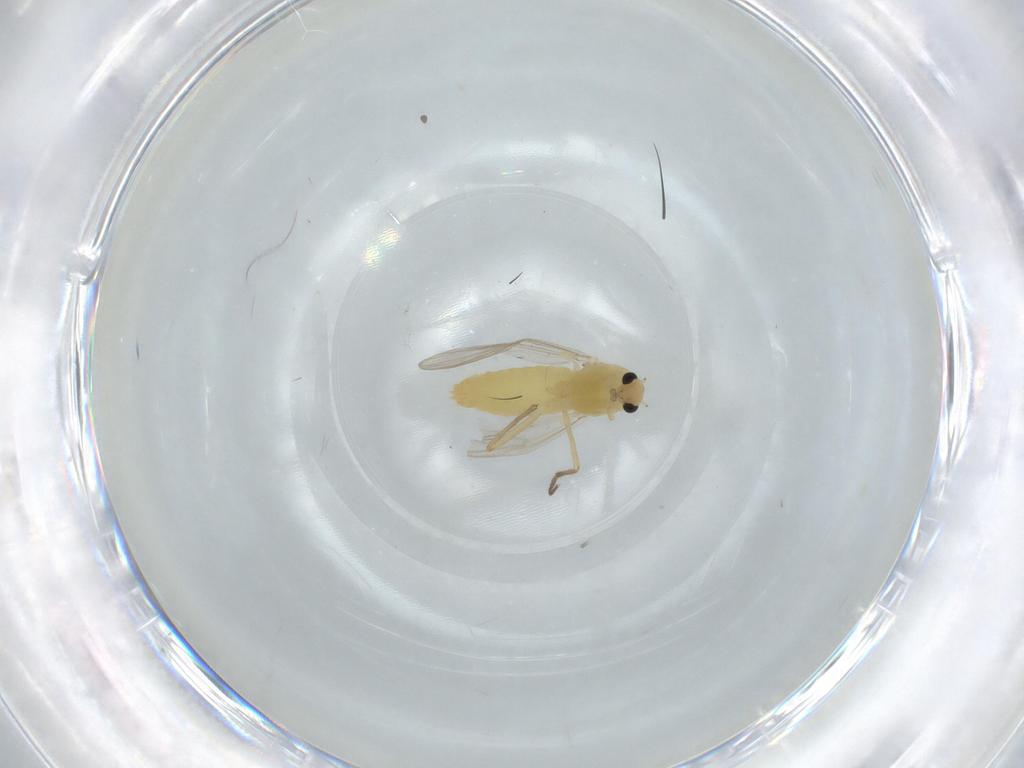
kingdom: Animalia
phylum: Arthropoda
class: Insecta
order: Diptera
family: Chironomidae
